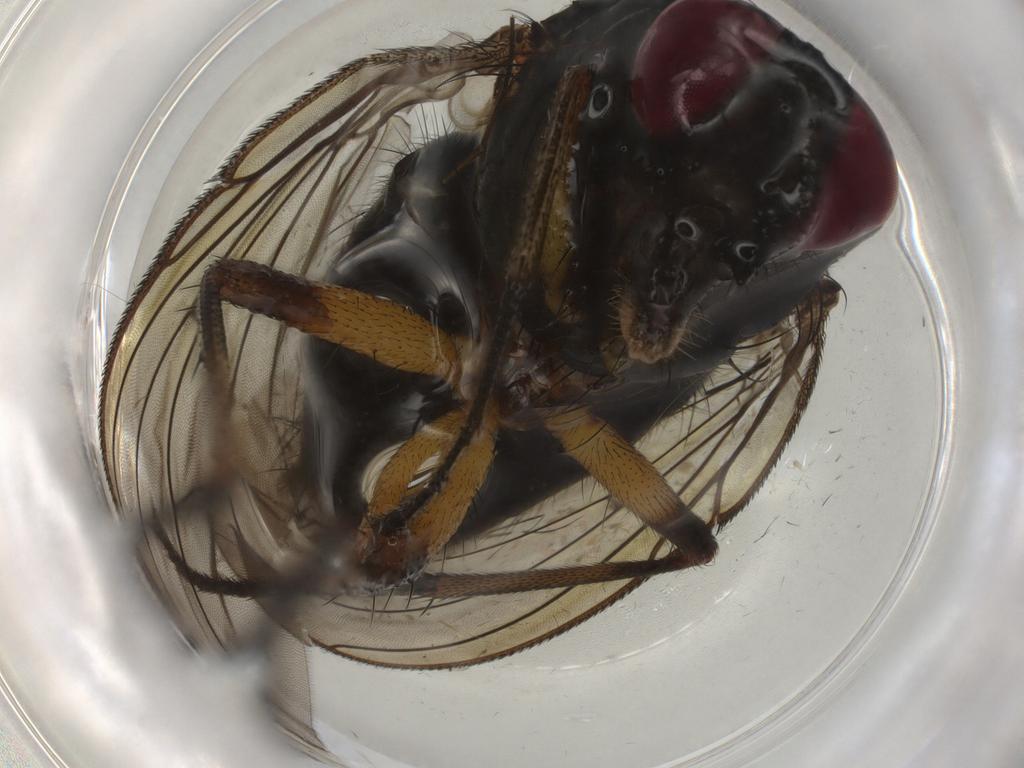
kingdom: Animalia
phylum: Arthropoda
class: Insecta
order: Diptera
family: Muscidae
